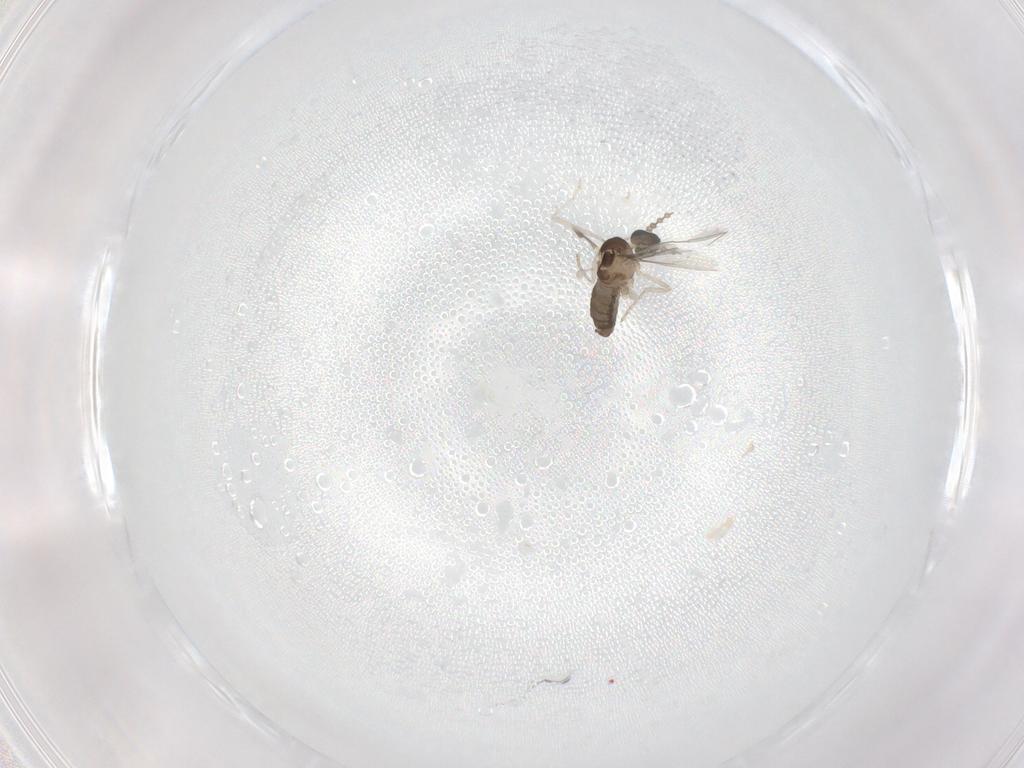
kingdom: Animalia
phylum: Arthropoda
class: Insecta
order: Diptera
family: Cecidomyiidae
